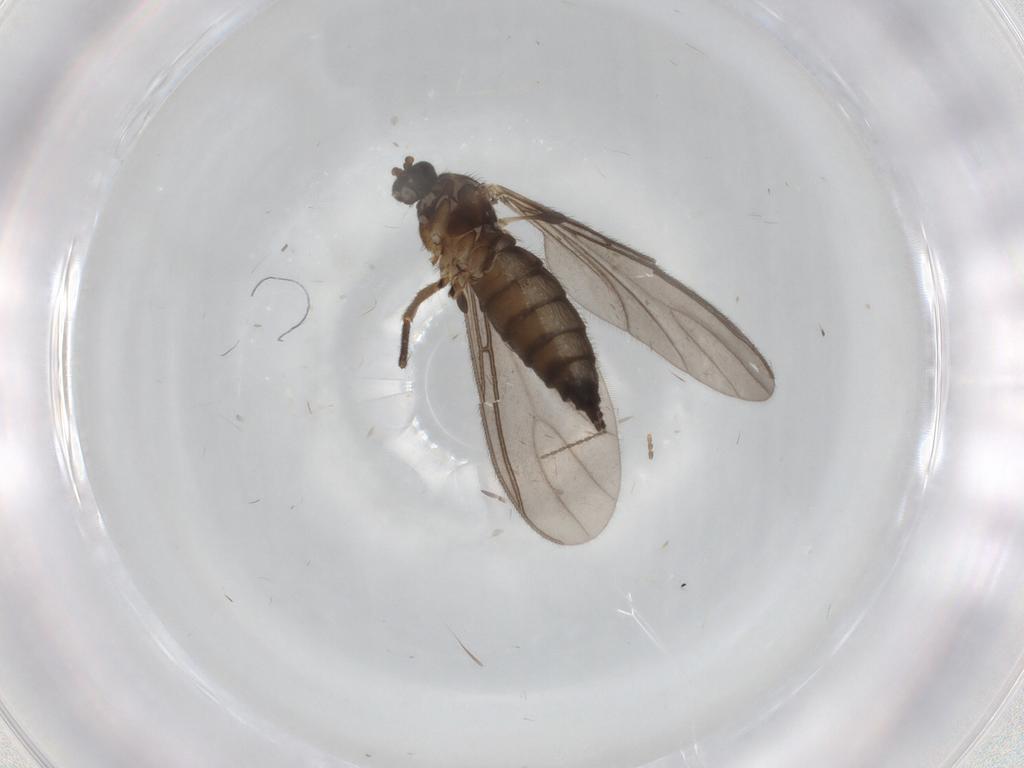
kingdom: Animalia
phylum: Arthropoda
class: Insecta
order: Diptera
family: Sciaridae
